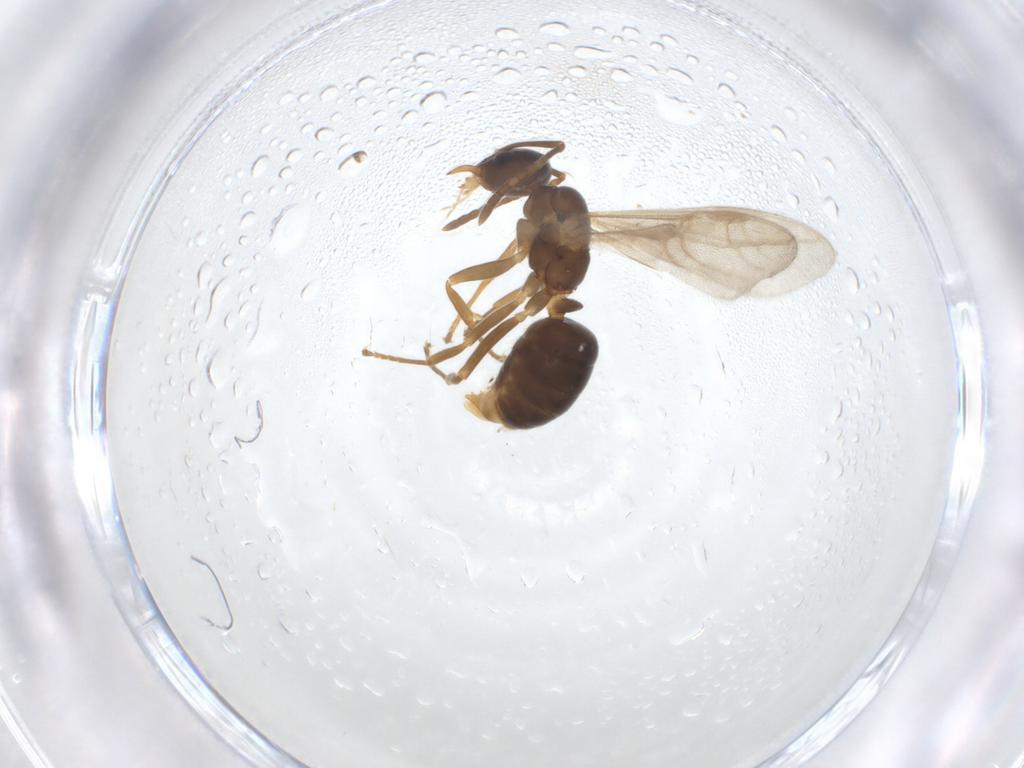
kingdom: Animalia
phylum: Arthropoda
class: Insecta
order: Hymenoptera
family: Formicidae
